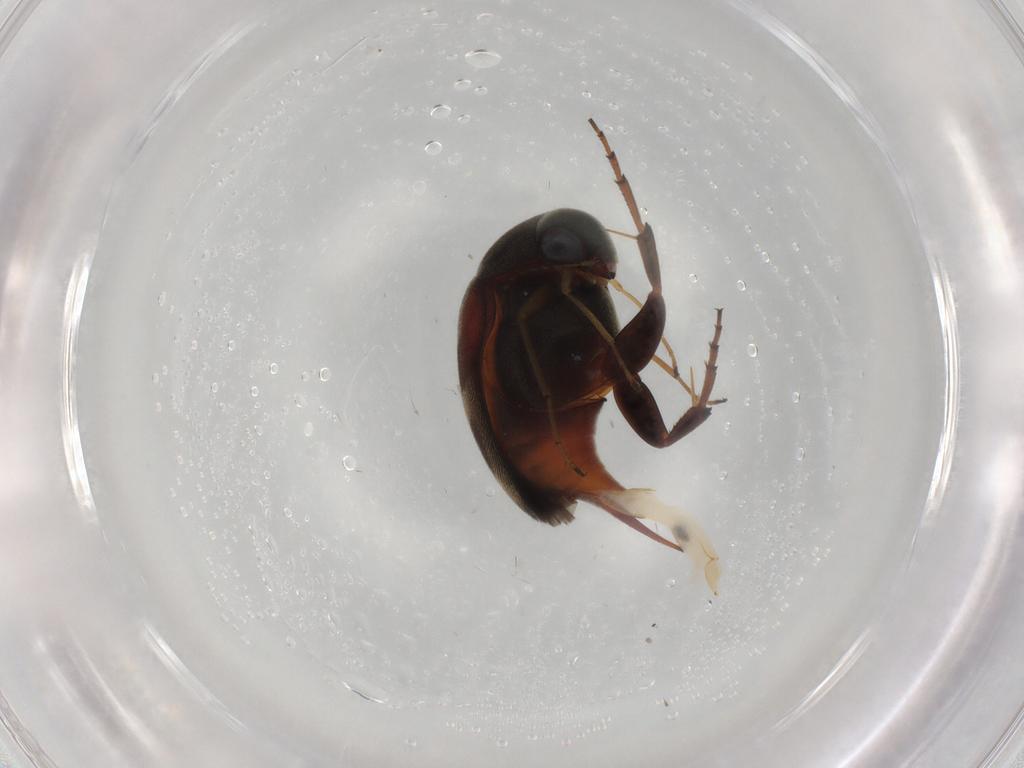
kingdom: Animalia
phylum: Arthropoda
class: Insecta
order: Coleoptera
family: Mordellidae
